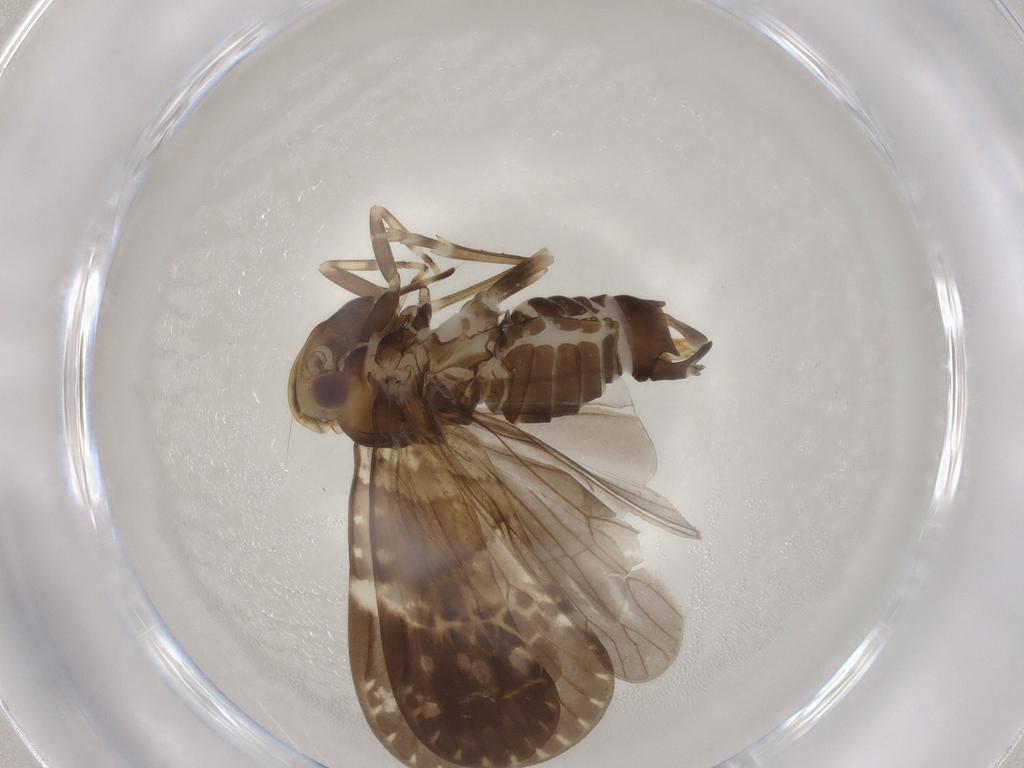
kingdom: Animalia
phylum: Arthropoda
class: Insecta
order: Hemiptera
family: Cixiidae
